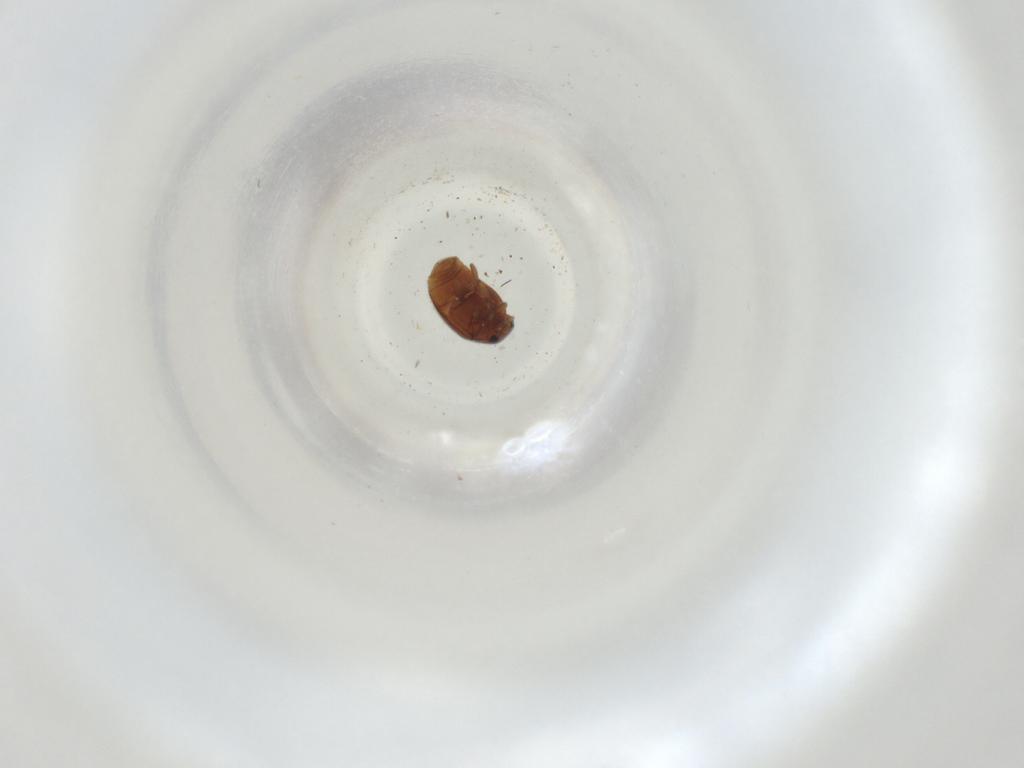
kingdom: Animalia
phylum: Arthropoda
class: Insecta
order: Coleoptera
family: Coccinellidae
